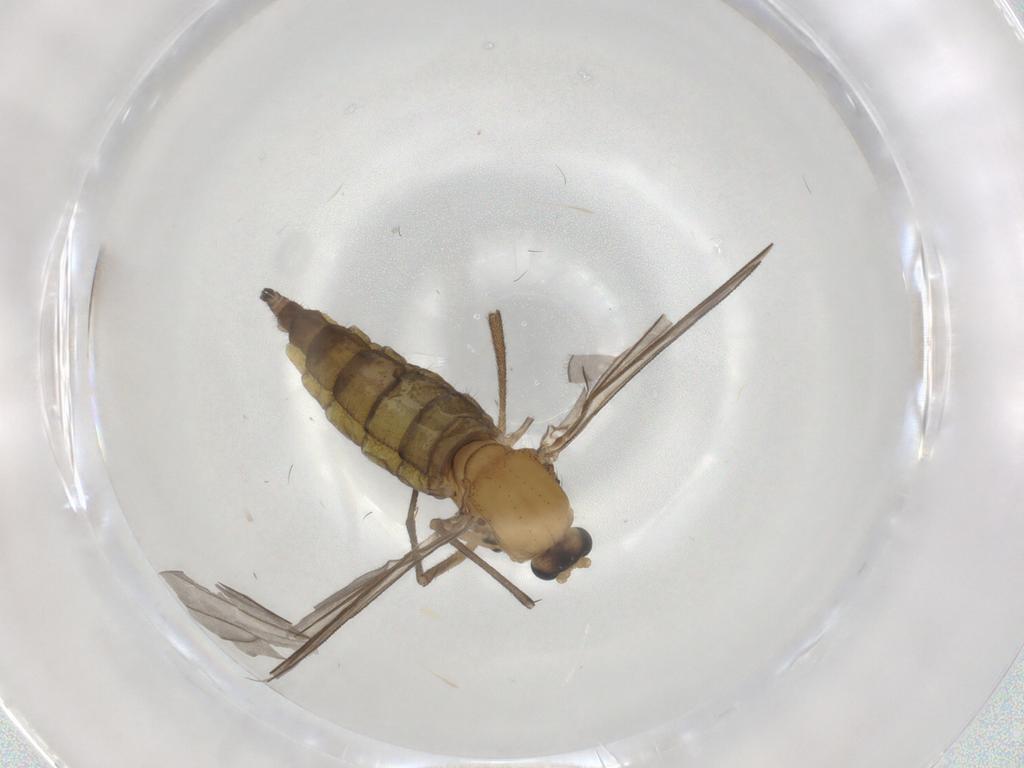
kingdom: Animalia
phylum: Arthropoda
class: Insecta
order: Diptera
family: Sciaridae
